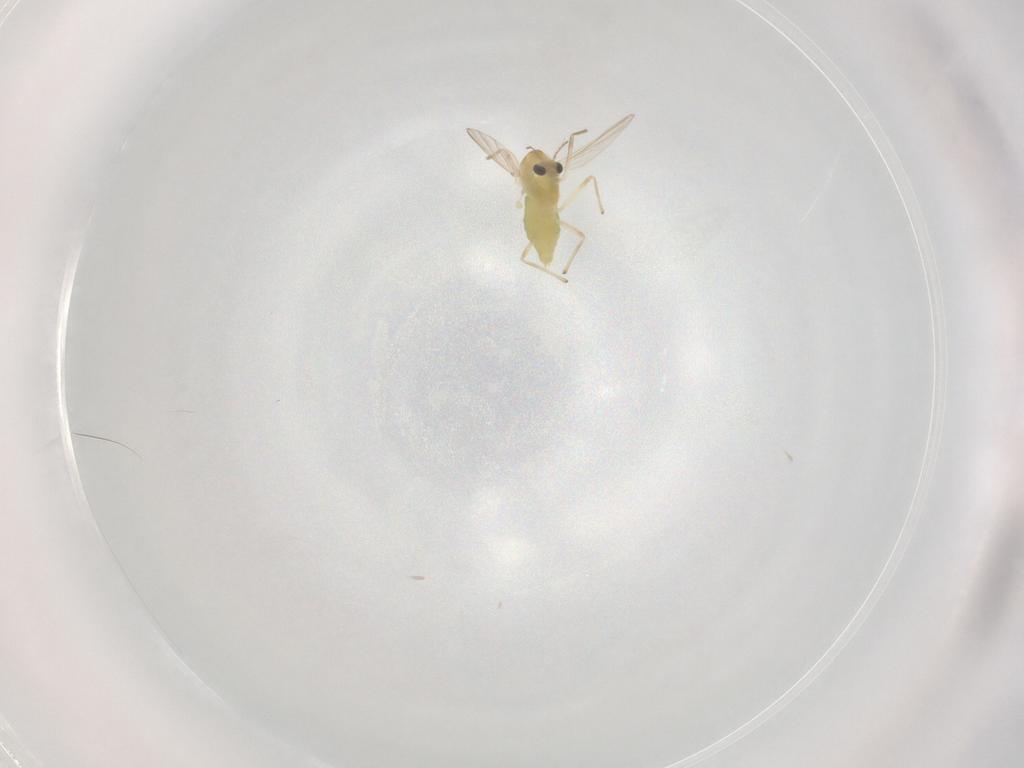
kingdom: Animalia
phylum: Arthropoda
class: Insecta
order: Diptera
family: Chironomidae
